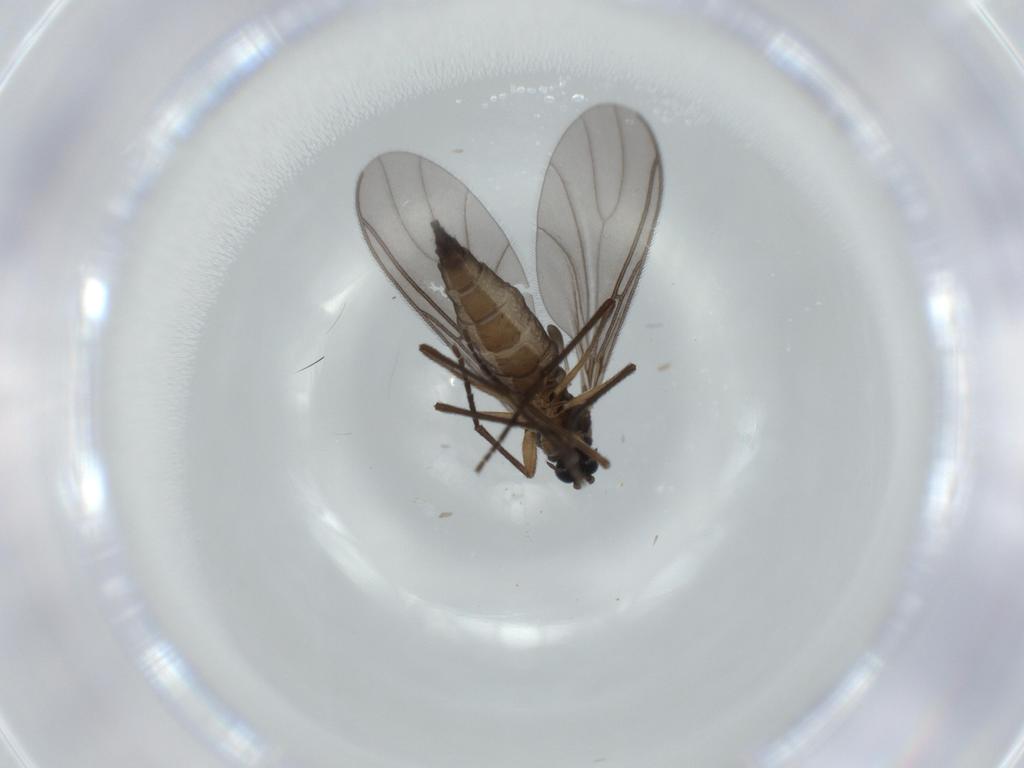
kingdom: Animalia
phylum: Arthropoda
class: Insecta
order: Diptera
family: Sciaridae
